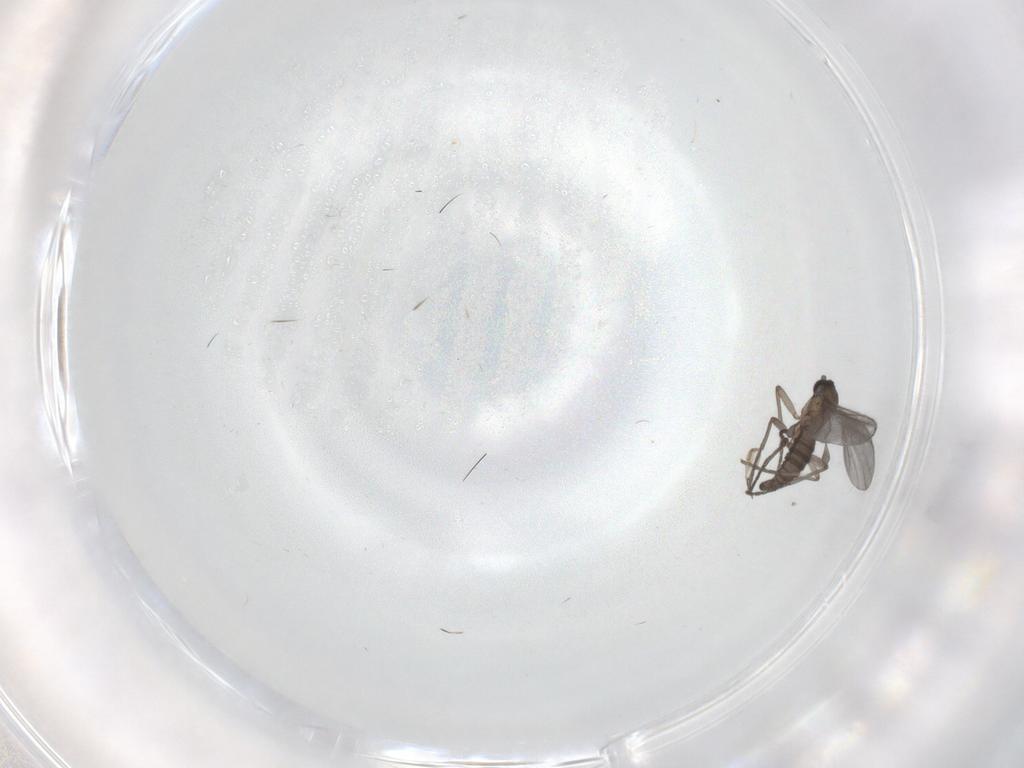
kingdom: Animalia
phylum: Arthropoda
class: Insecta
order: Diptera
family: Sciaridae
